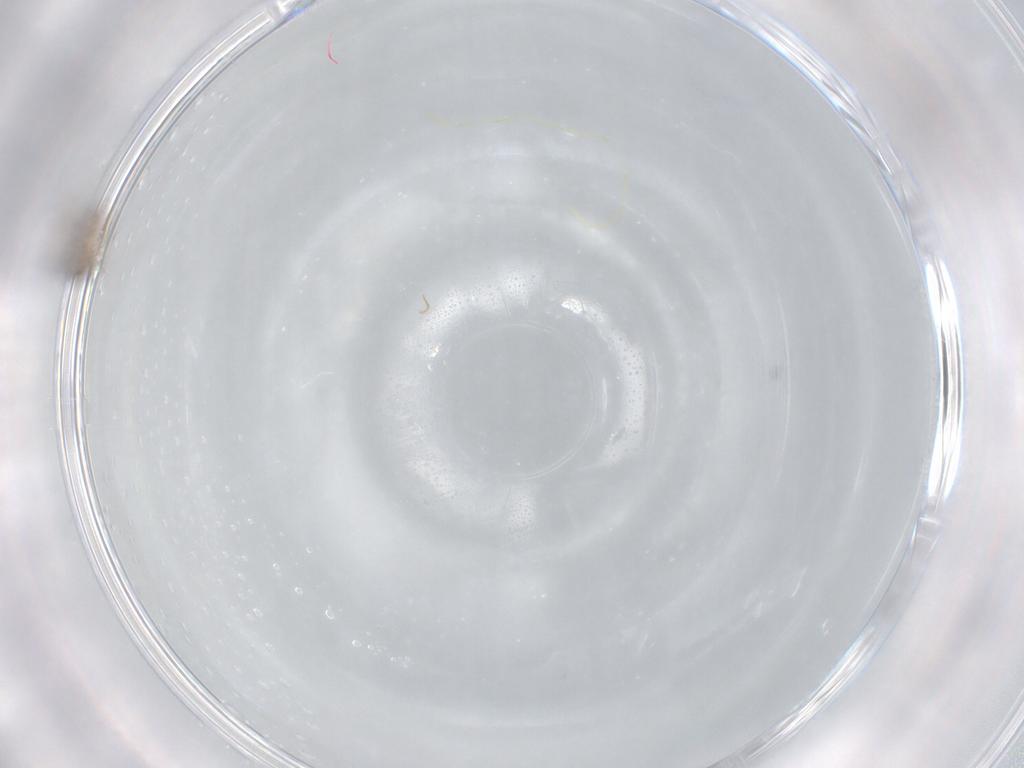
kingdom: Animalia
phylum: Arthropoda
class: Insecta
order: Diptera
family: Cecidomyiidae
